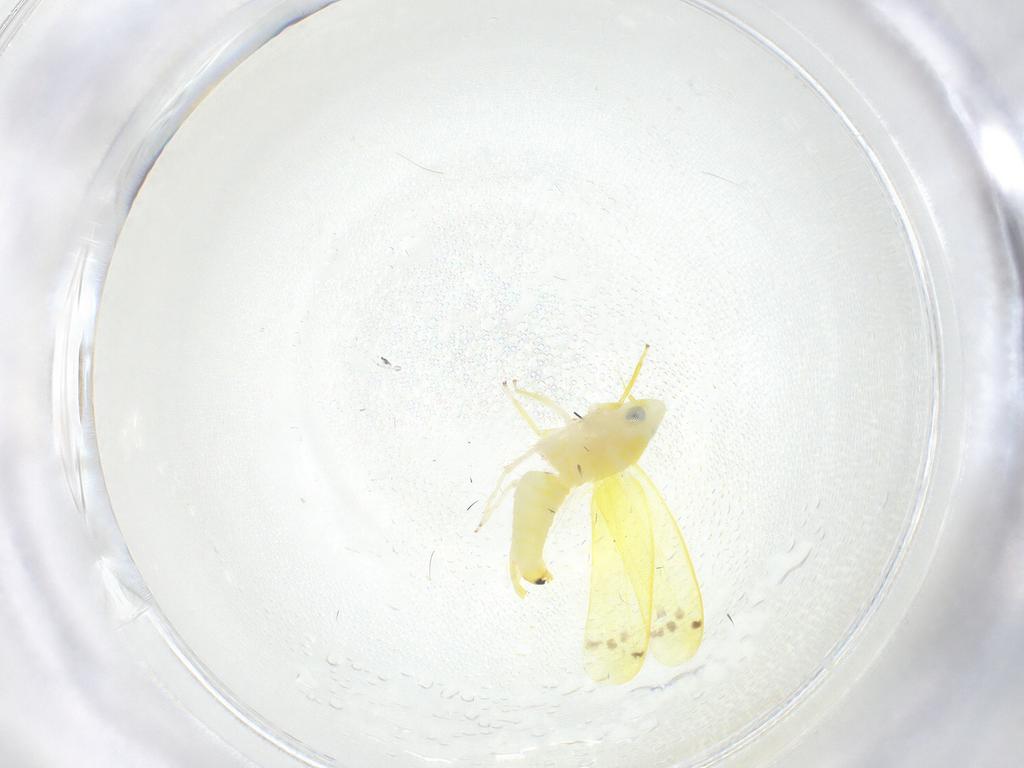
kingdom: Animalia
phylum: Arthropoda
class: Insecta
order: Hemiptera
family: Cicadellidae
